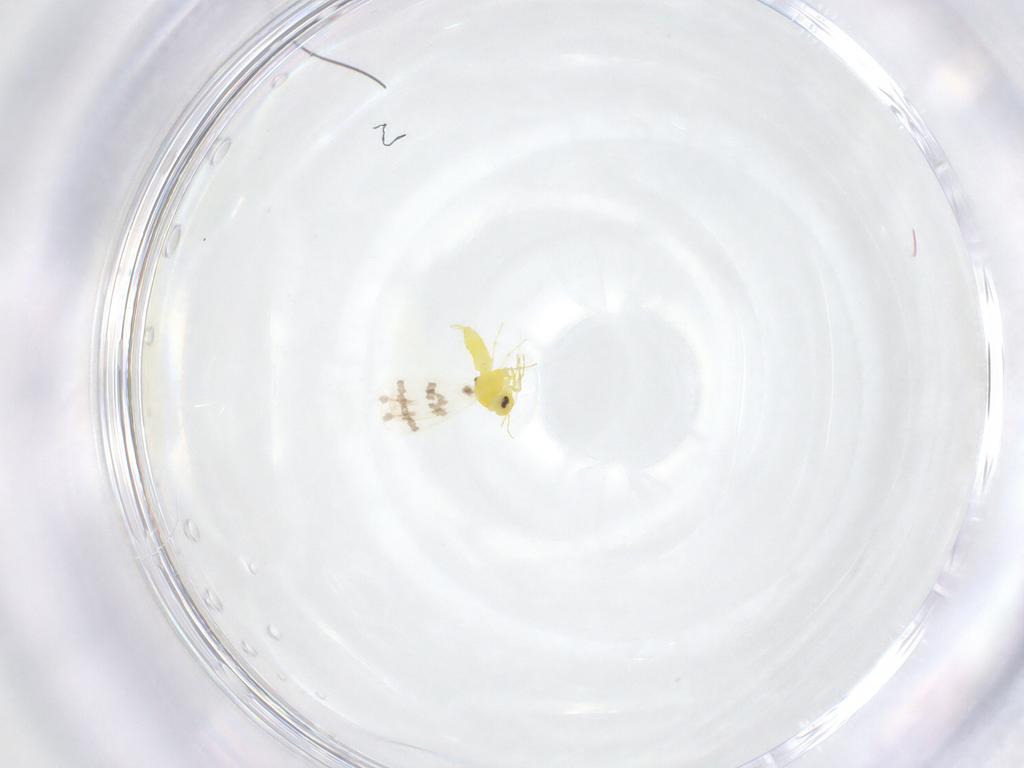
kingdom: Animalia
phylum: Arthropoda
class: Insecta
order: Hemiptera
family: Aleyrodidae
